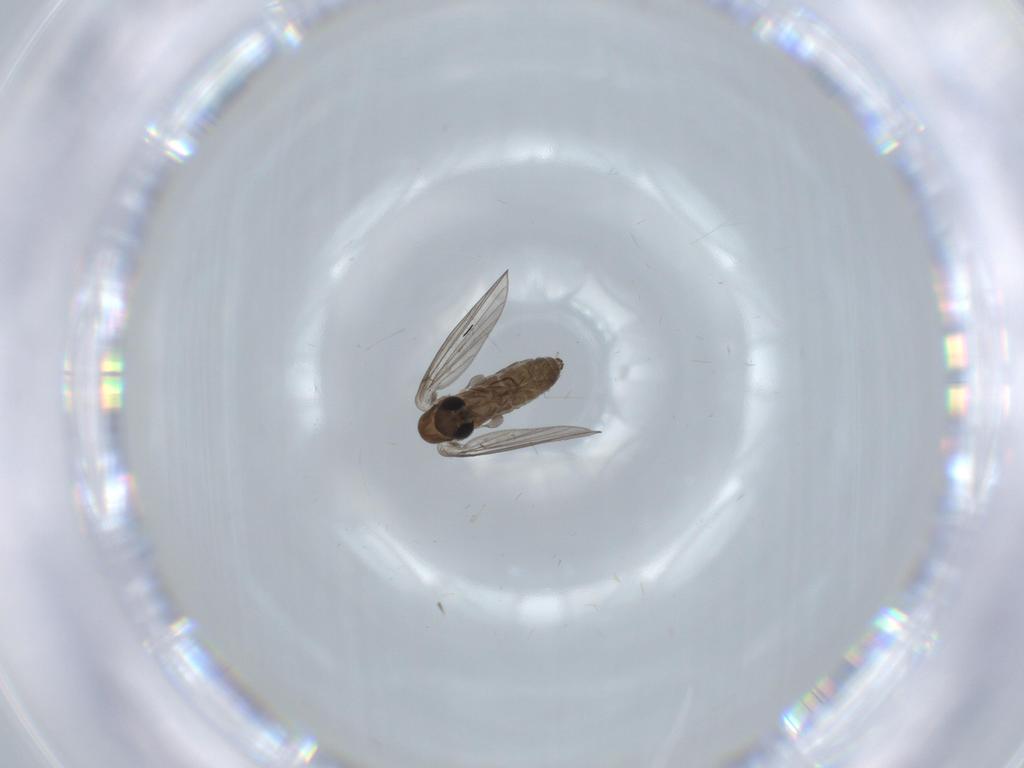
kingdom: Animalia
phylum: Arthropoda
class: Insecta
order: Diptera
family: Psychodidae
